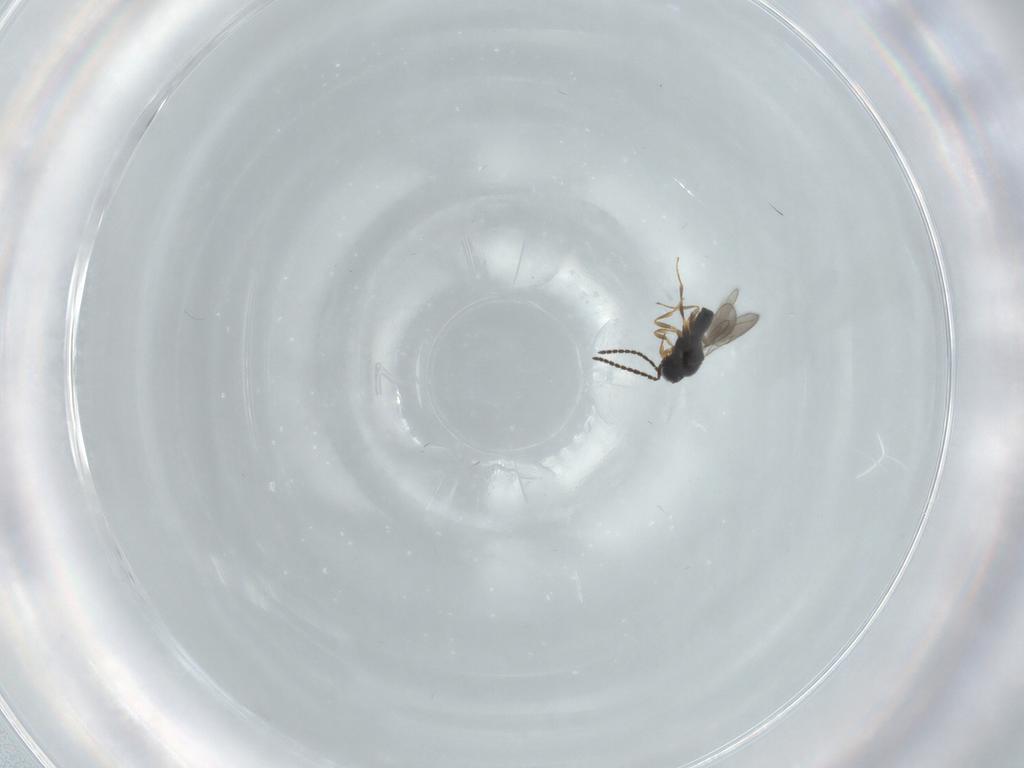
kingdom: Animalia
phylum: Arthropoda
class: Insecta
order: Hymenoptera
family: Scelionidae
